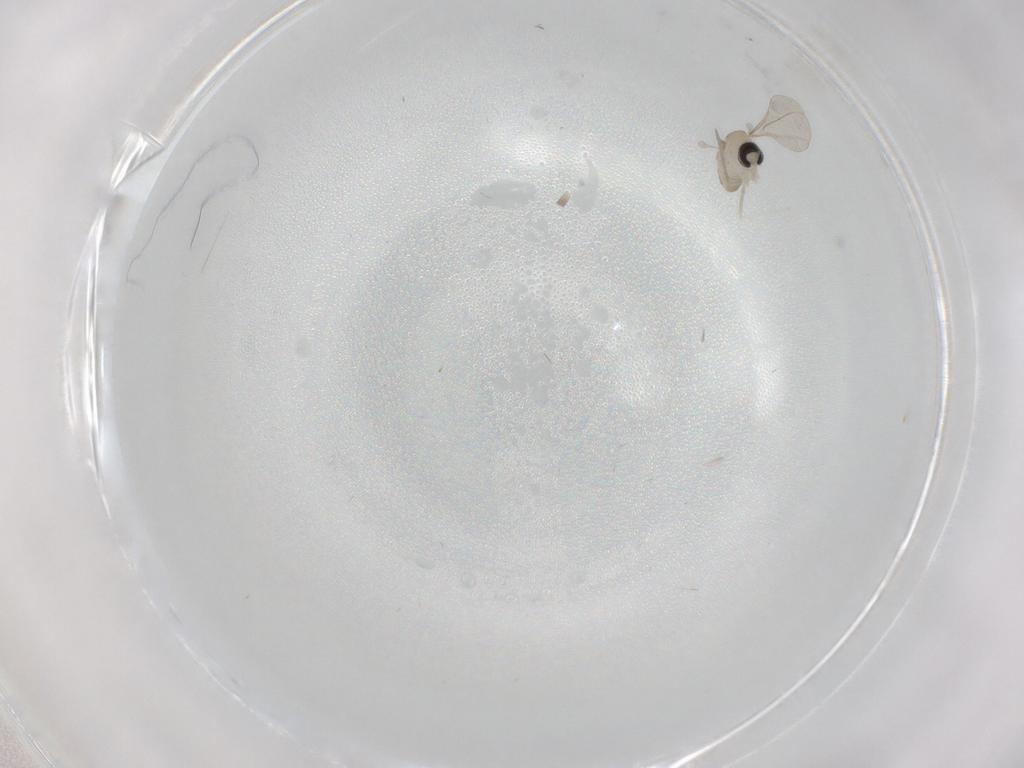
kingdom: Animalia
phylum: Arthropoda
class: Insecta
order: Diptera
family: Cecidomyiidae
